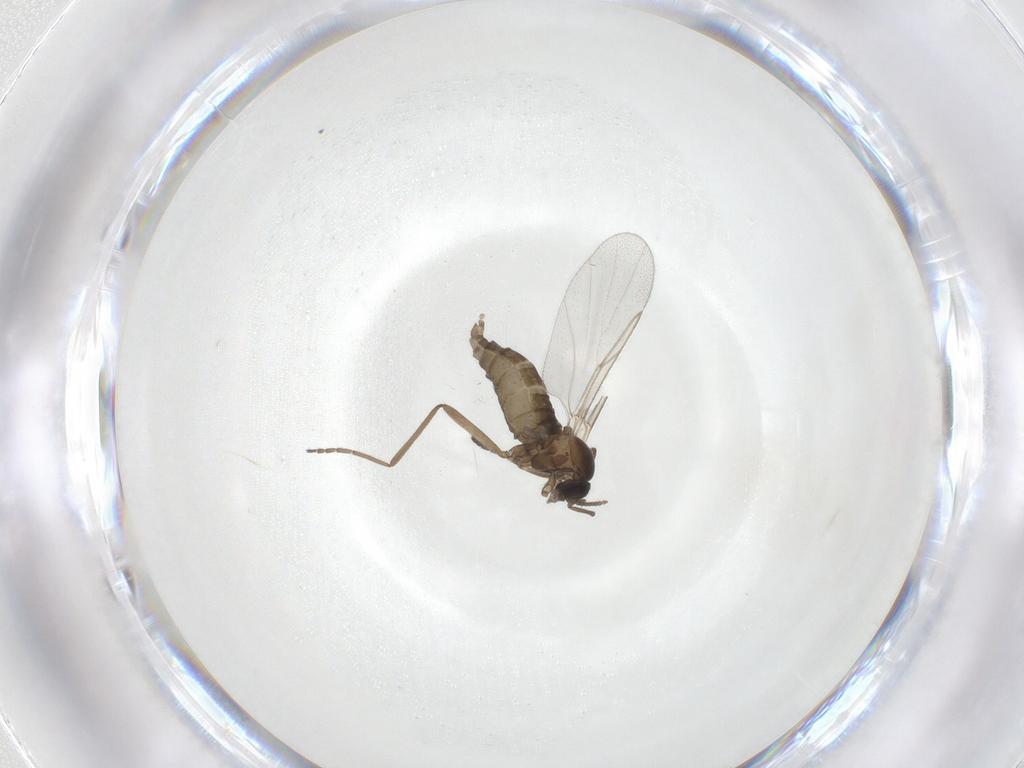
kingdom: Animalia
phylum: Arthropoda
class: Insecta
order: Diptera
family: Cecidomyiidae
